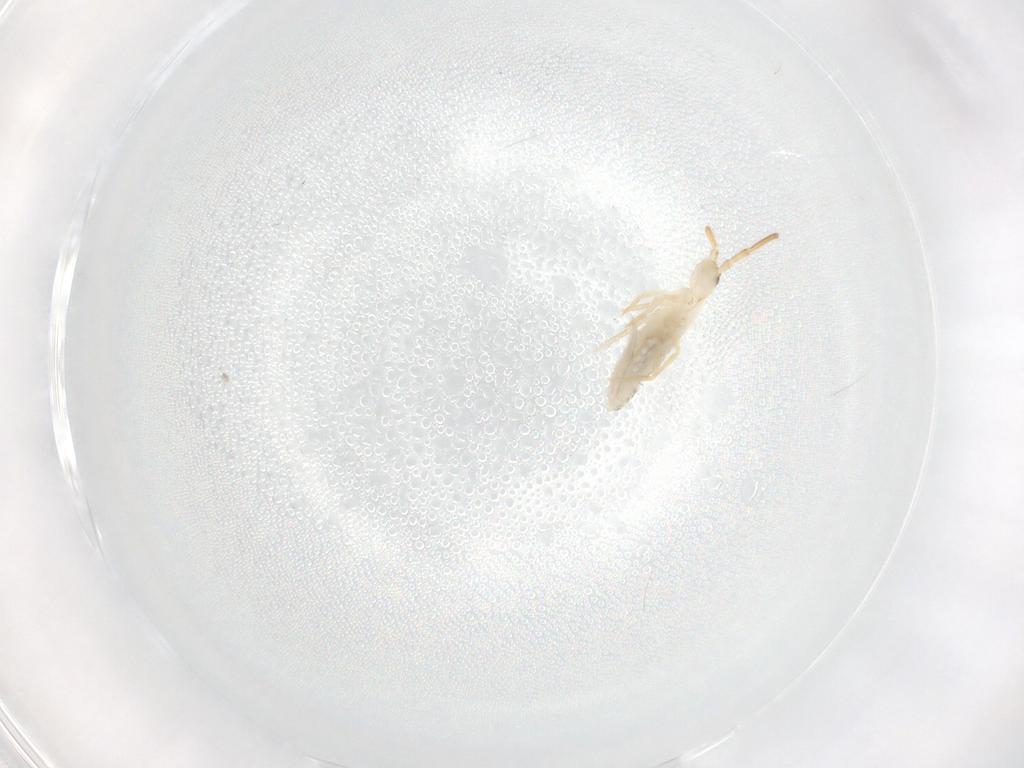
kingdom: Animalia
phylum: Arthropoda
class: Collembola
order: Entomobryomorpha
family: Entomobryidae
